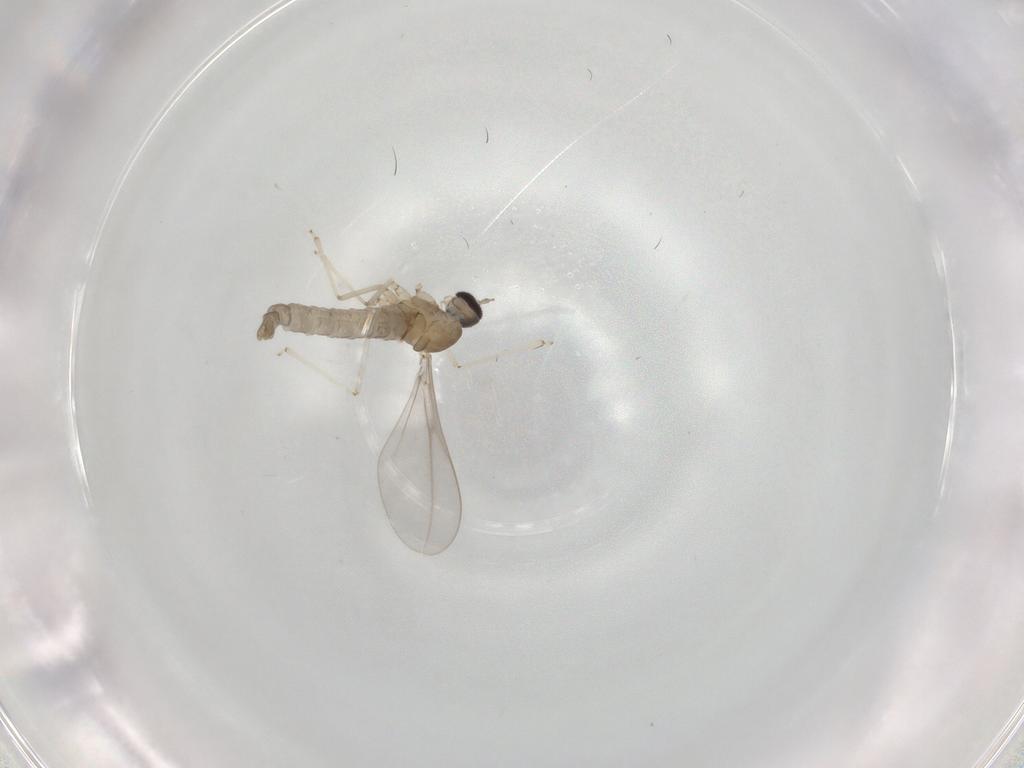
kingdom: Animalia
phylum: Arthropoda
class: Insecta
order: Diptera
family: Cecidomyiidae
